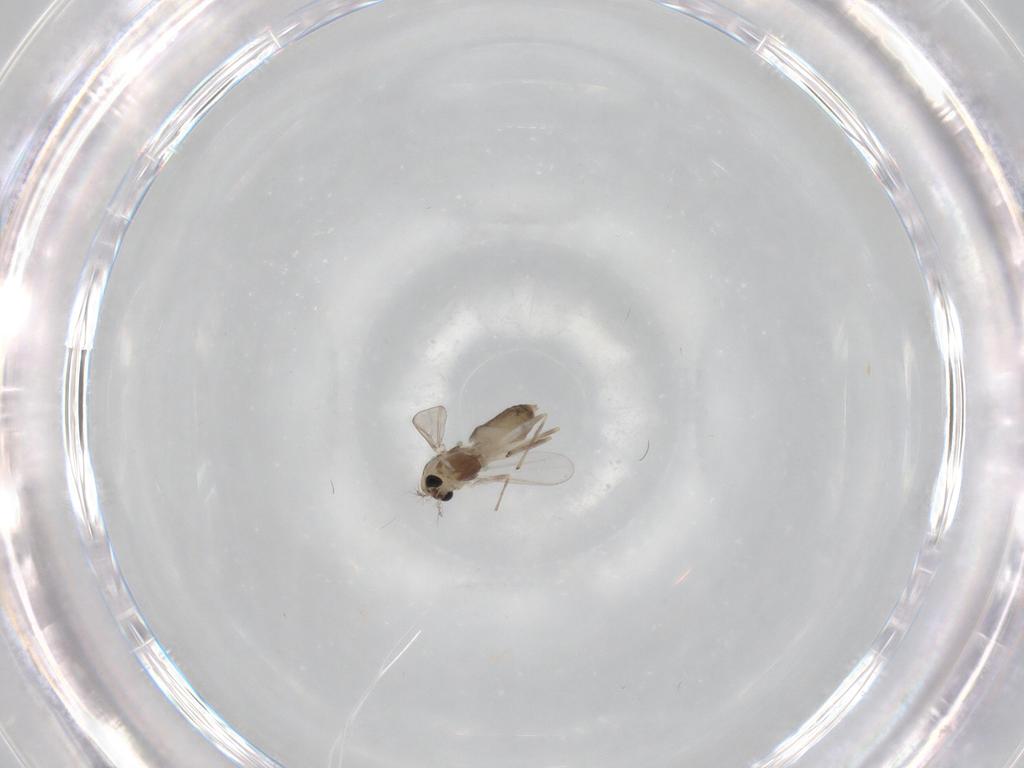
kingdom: Animalia
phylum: Arthropoda
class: Insecta
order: Diptera
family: Chironomidae
